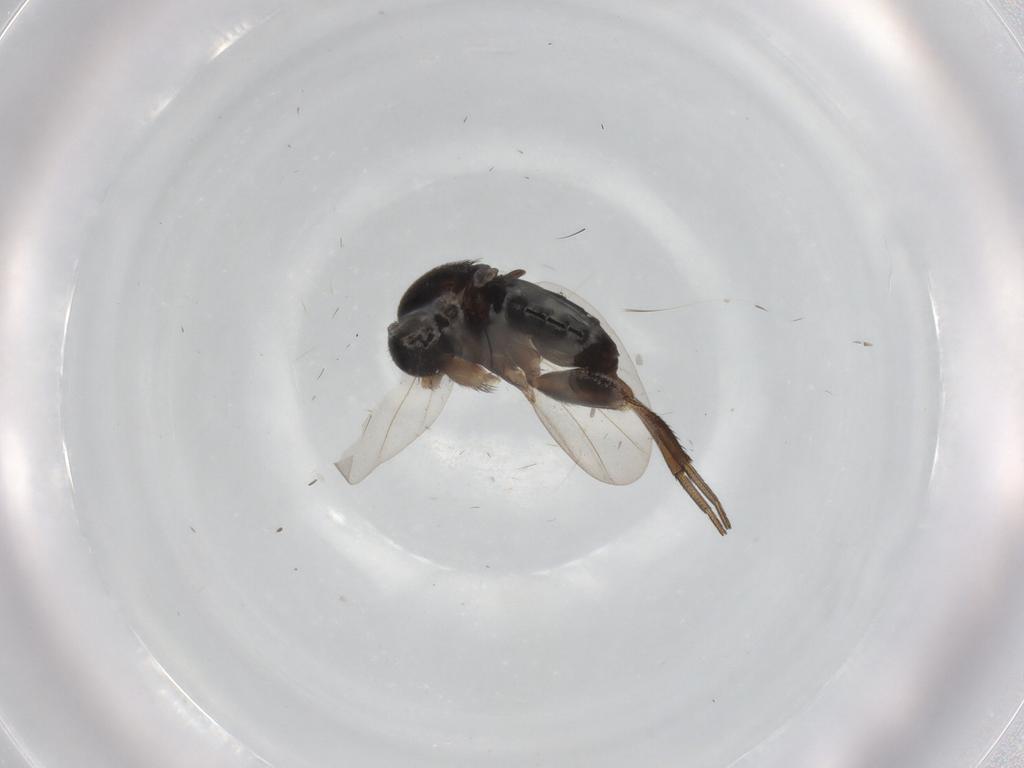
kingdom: Animalia
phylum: Arthropoda
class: Insecta
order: Diptera
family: Phoridae
